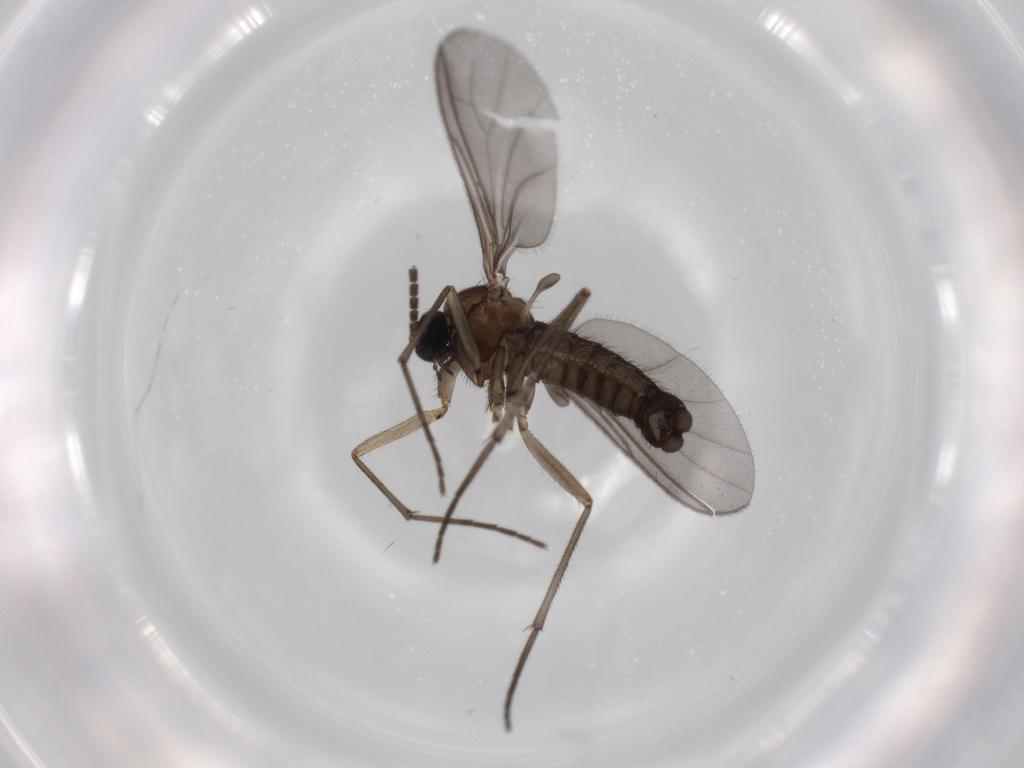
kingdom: Animalia
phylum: Arthropoda
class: Insecta
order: Diptera
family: Sciaridae
